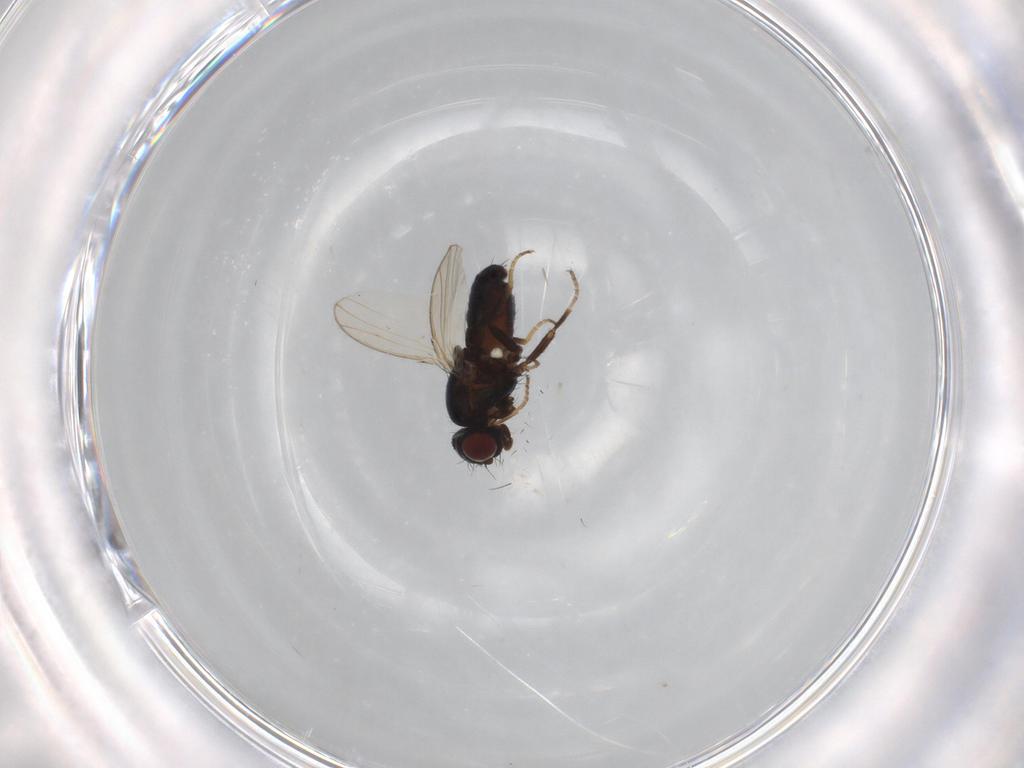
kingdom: Animalia
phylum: Arthropoda
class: Insecta
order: Diptera
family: Carnidae
